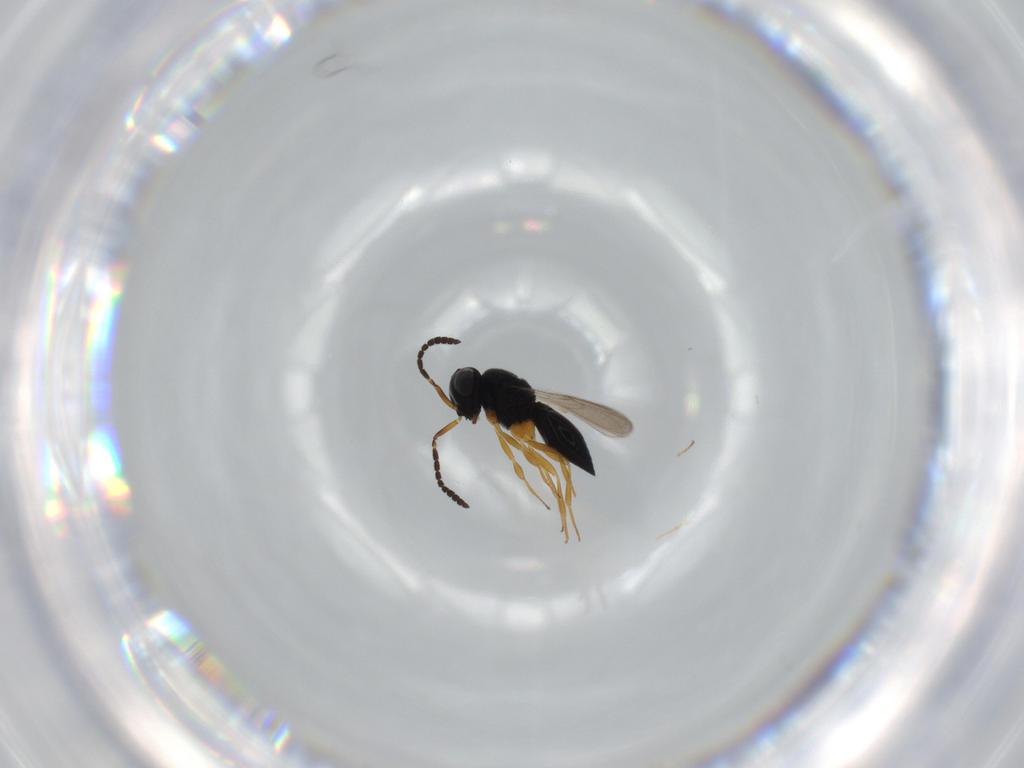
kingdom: Animalia
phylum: Arthropoda
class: Insecta
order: Hymenoptera
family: Scelionidae
